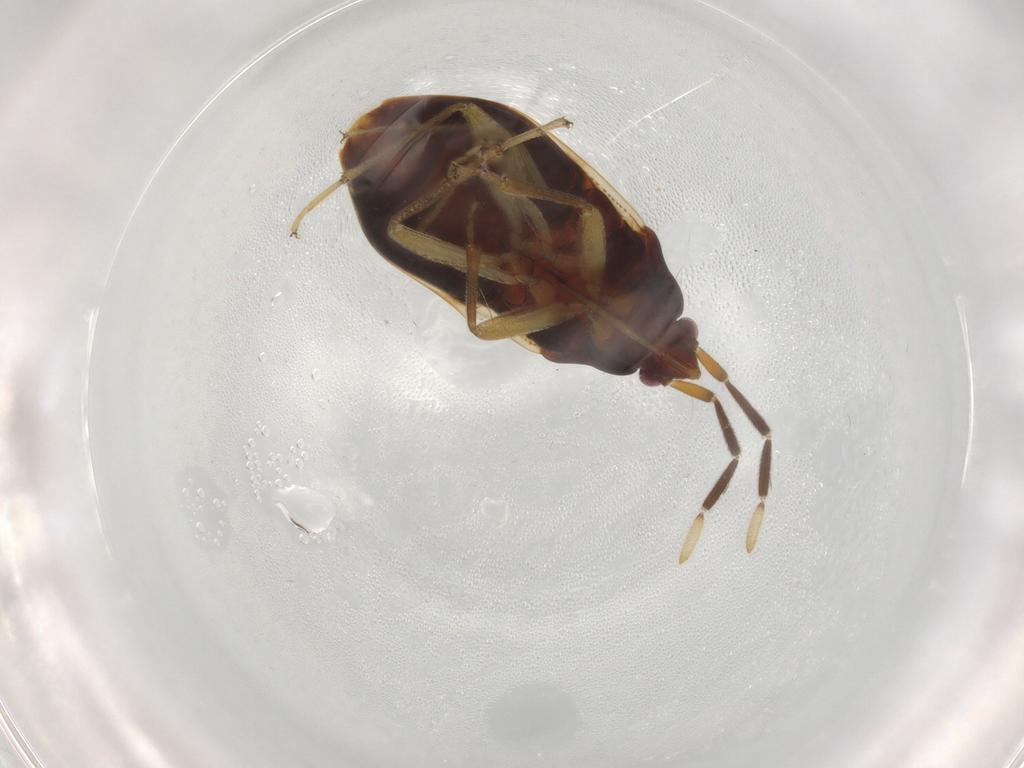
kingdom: Animalia
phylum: Arthropoda
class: Insecta
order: Hemiptera
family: Rhyparochromidae
